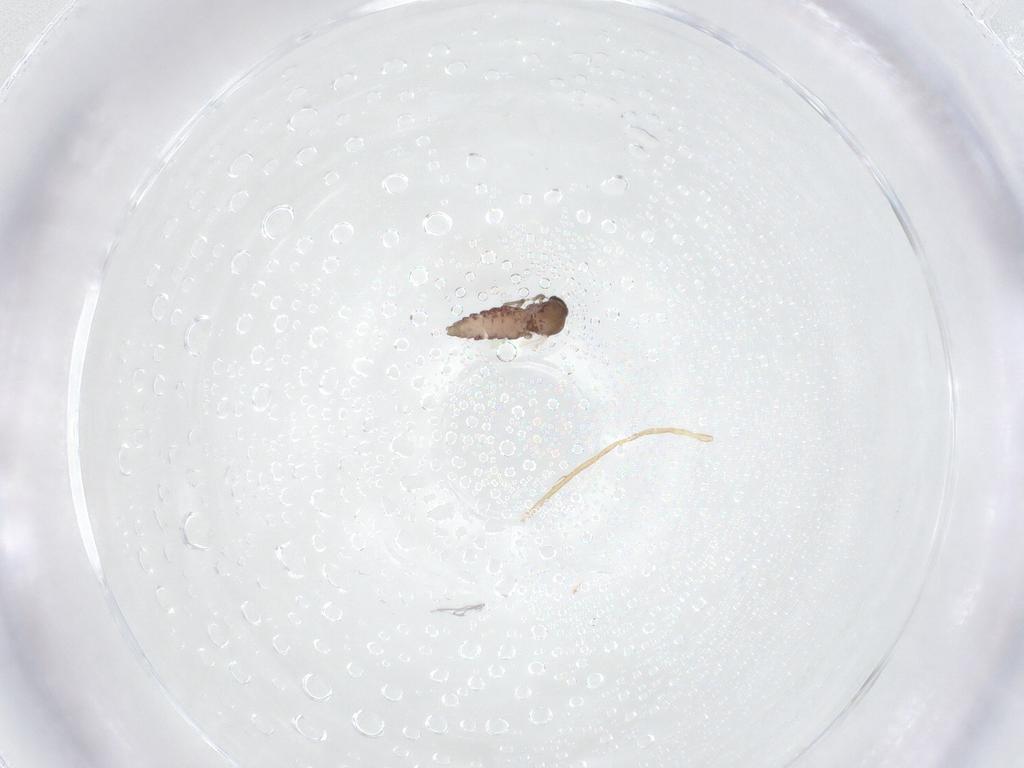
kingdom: Animalia
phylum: Arthropoda
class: Insecta
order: Diptera
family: Ceratopogonidae
